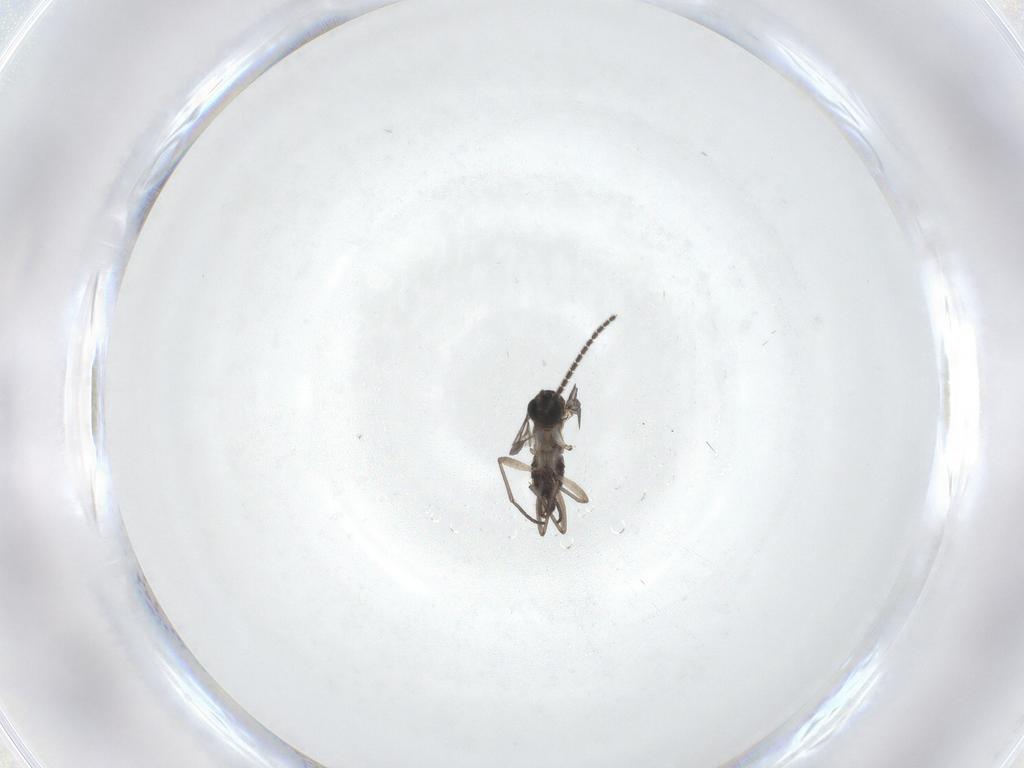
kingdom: Animalia
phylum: Arthropoda
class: Insecta
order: Diptera
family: Sciaridae
